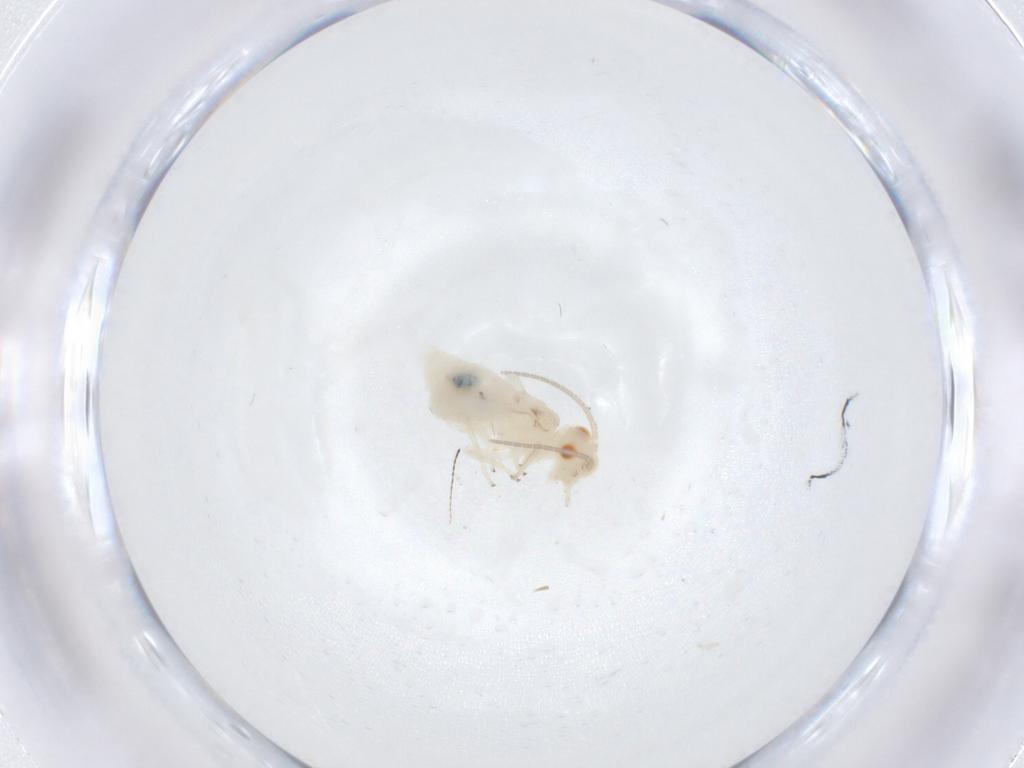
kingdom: Animalia
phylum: Arthropoda
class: Insecta
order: Psocodea
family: Caeciliusidae
